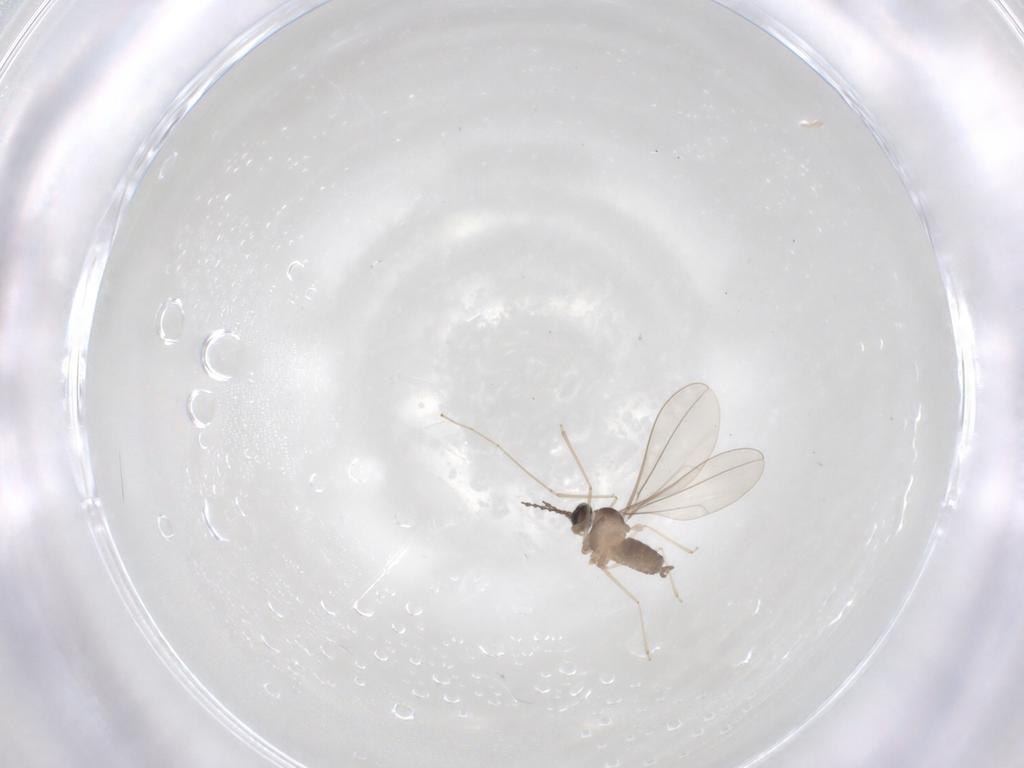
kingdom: Animalia
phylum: Arthropoda
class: Insecta
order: Diptera
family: Cecidomyiidae
